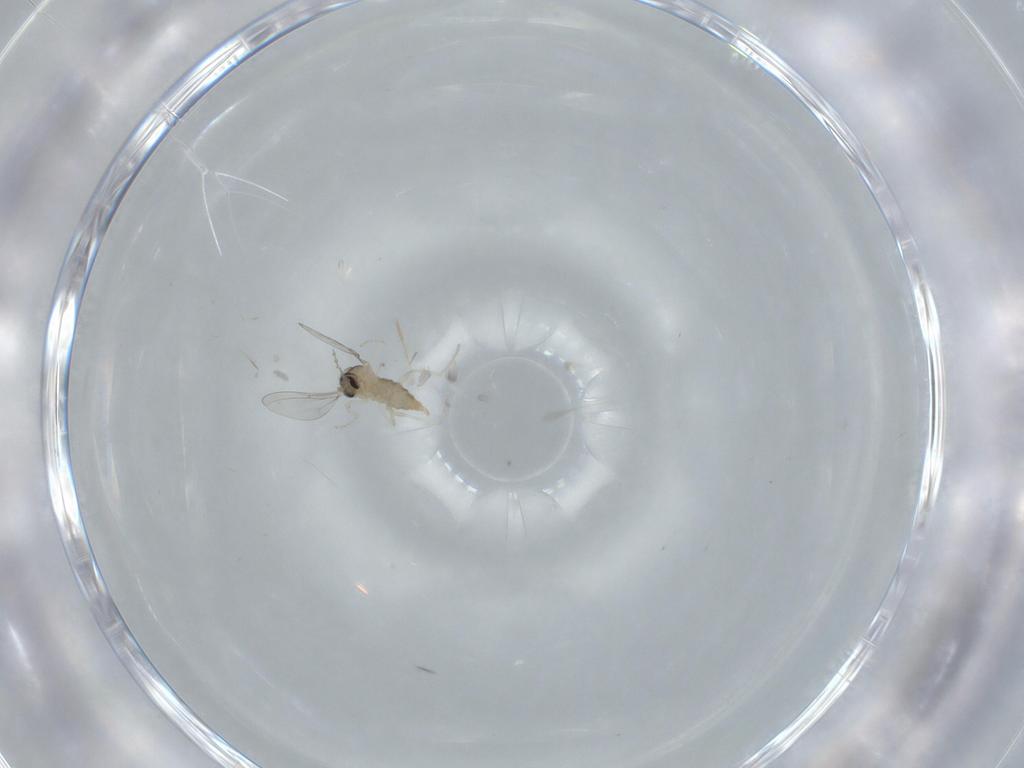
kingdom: Animalia
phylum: Arthropoda
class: Insecta
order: Diptera
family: Cecidomyiidae
